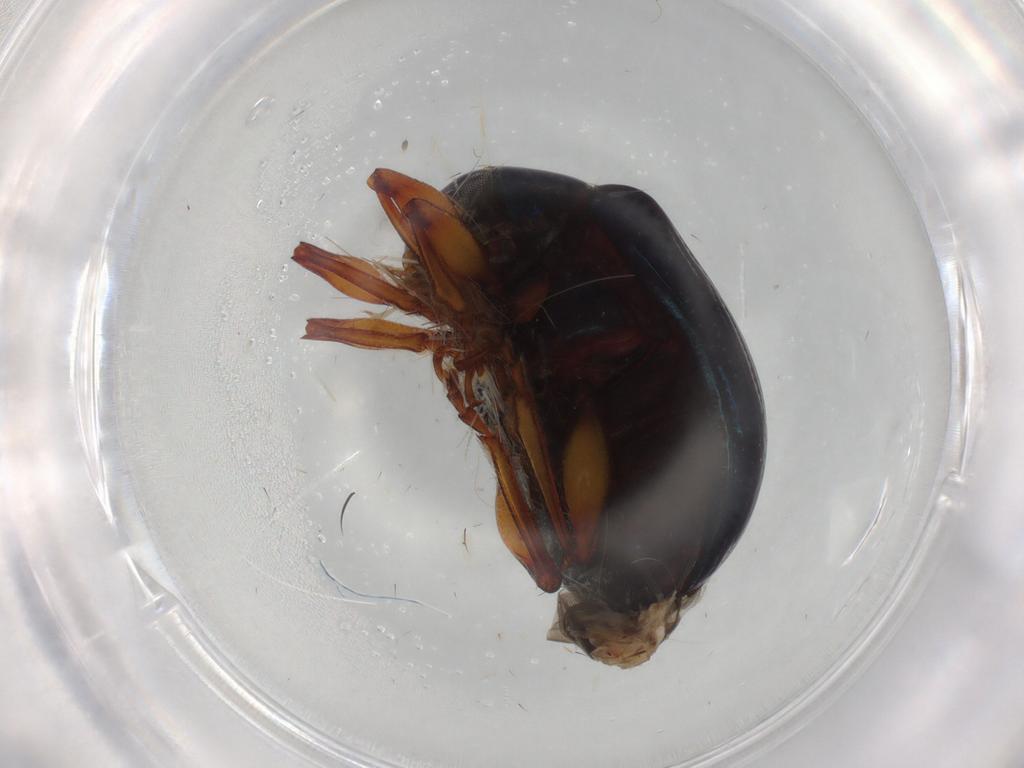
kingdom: Animalia
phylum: Arthropoda
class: Insecta
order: Coleoptera
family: Chrysomelidae
